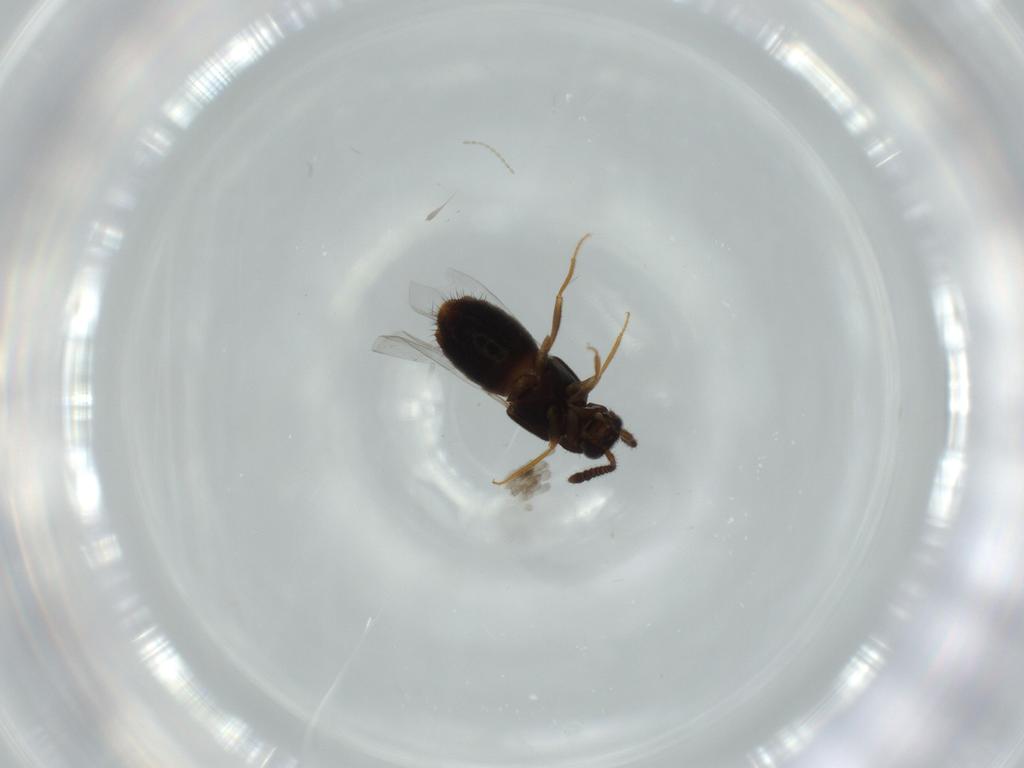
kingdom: Animalia
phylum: Arthropoda
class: Insecta
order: Coleoptera
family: Staphylinidae
